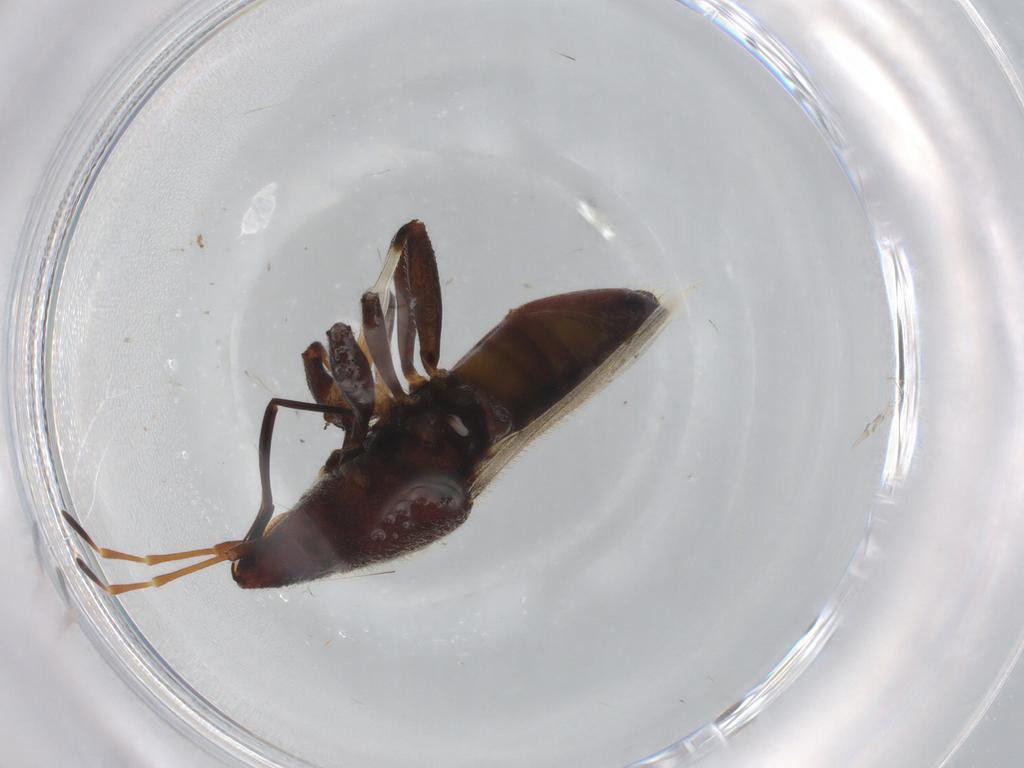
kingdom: Animalia
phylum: Arthropoda
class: Insecta
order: Hemiptera
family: Oxycarenidae
